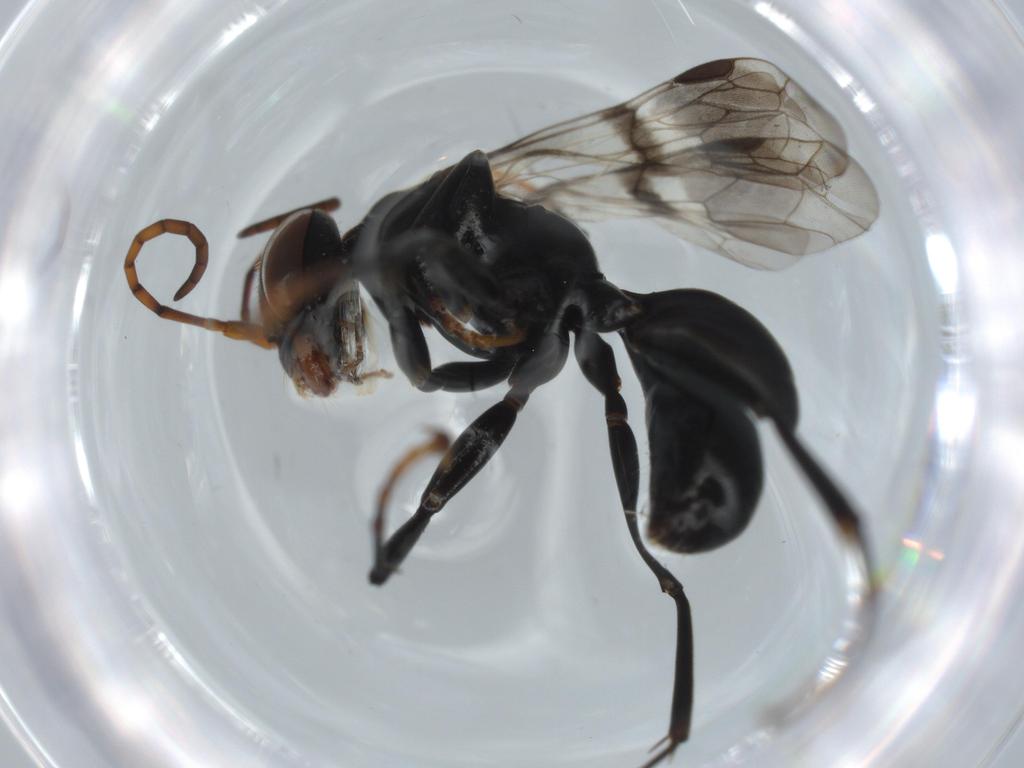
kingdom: Animalia
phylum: Arthropoda
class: Insecta
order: Hymenoptera
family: Pompilidae
